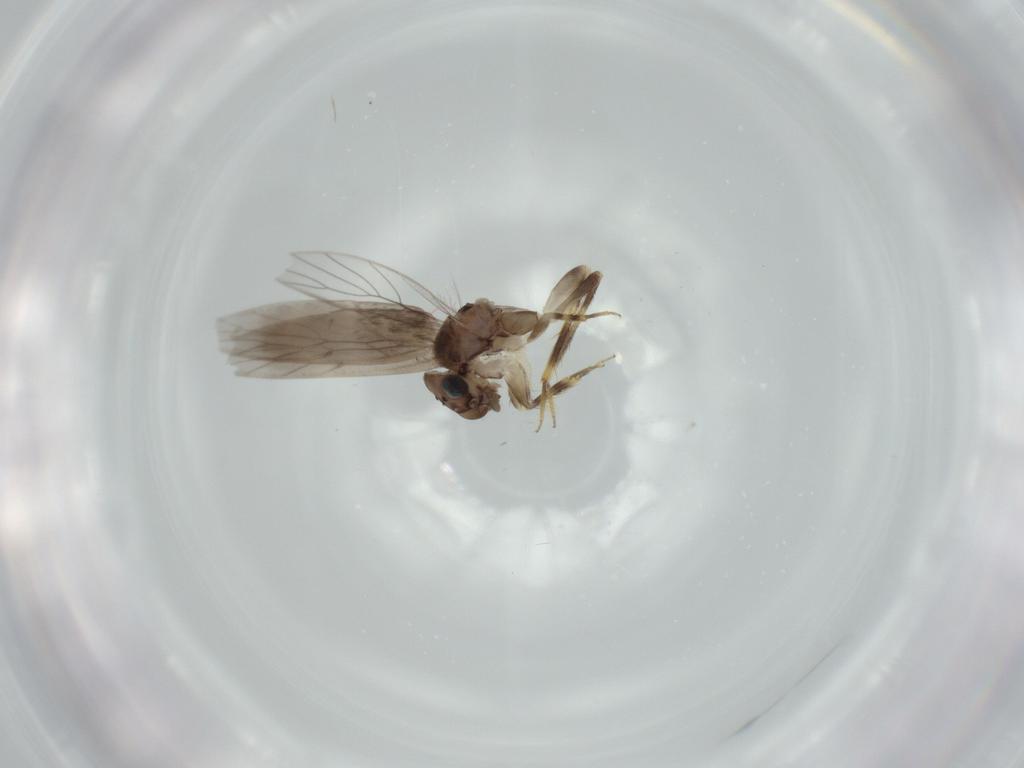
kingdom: Animalia
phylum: Arthropoda
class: Insecta
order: Psocodea
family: Lepidopsocidae
